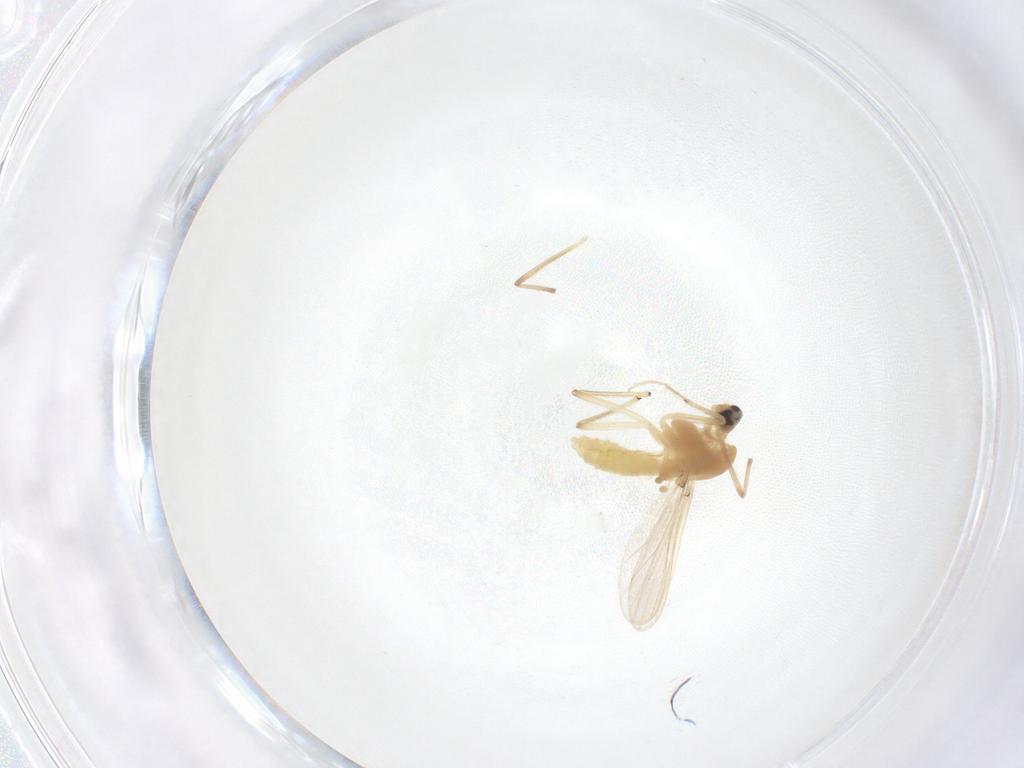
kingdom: Animalia
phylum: Arthropoda
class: Insecta
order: Diptera
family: Chironomidae
